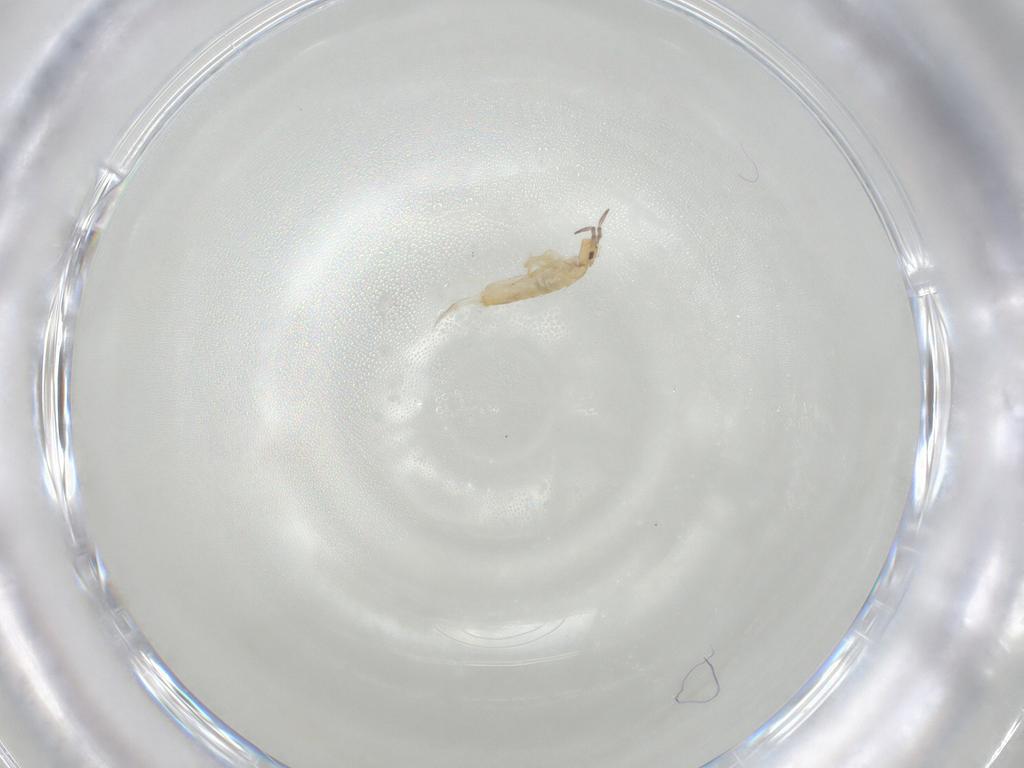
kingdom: Animalia
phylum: Arthropoda
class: Collembola
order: Entomobryomorpha
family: Entomobryidae
